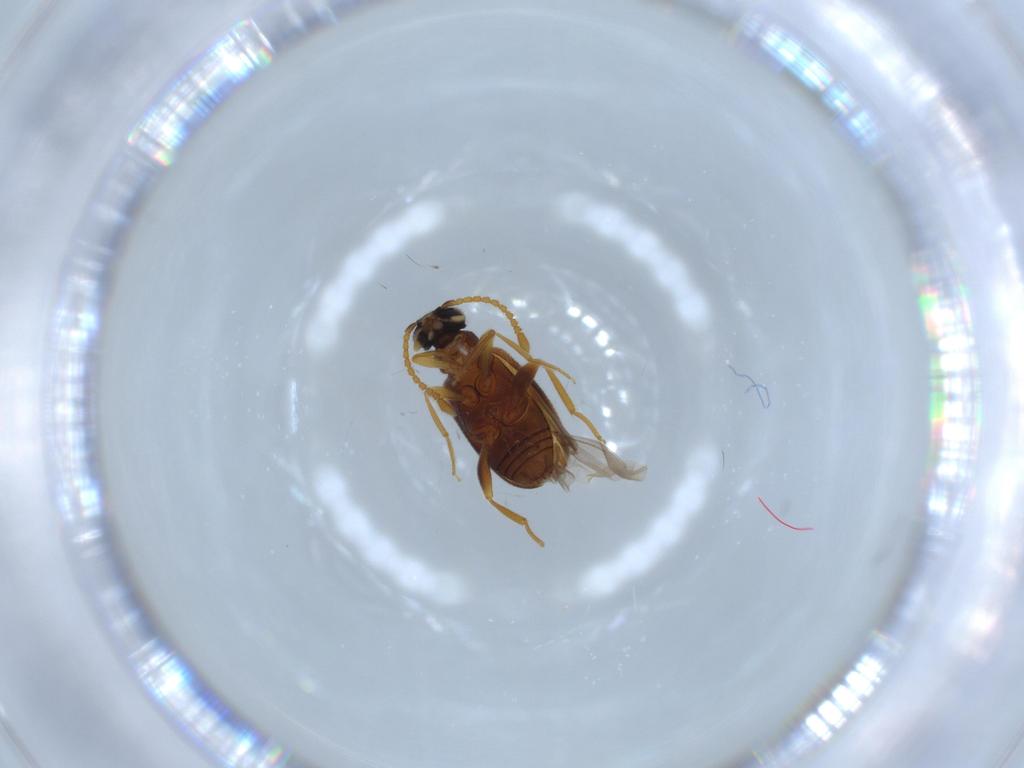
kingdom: Animalia
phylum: Arthropoda
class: Insecta
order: Coleoptera
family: Aderidae
